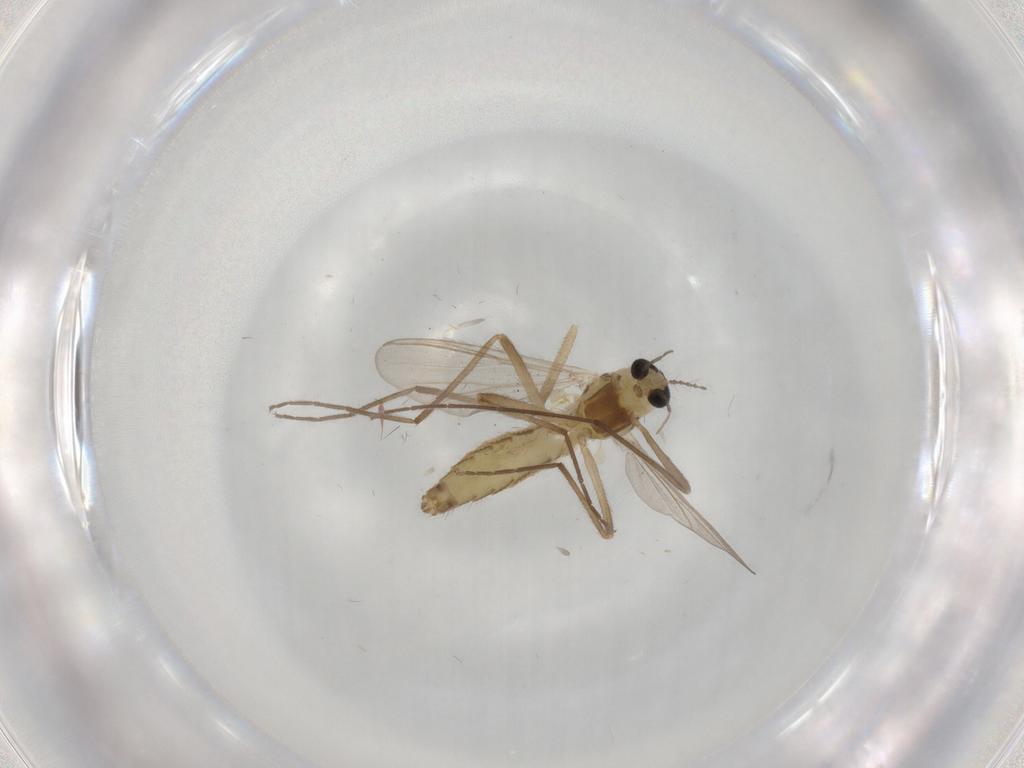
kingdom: Animalia
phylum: Arthropoda
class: Insecta
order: Diptera
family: Chironomidae
